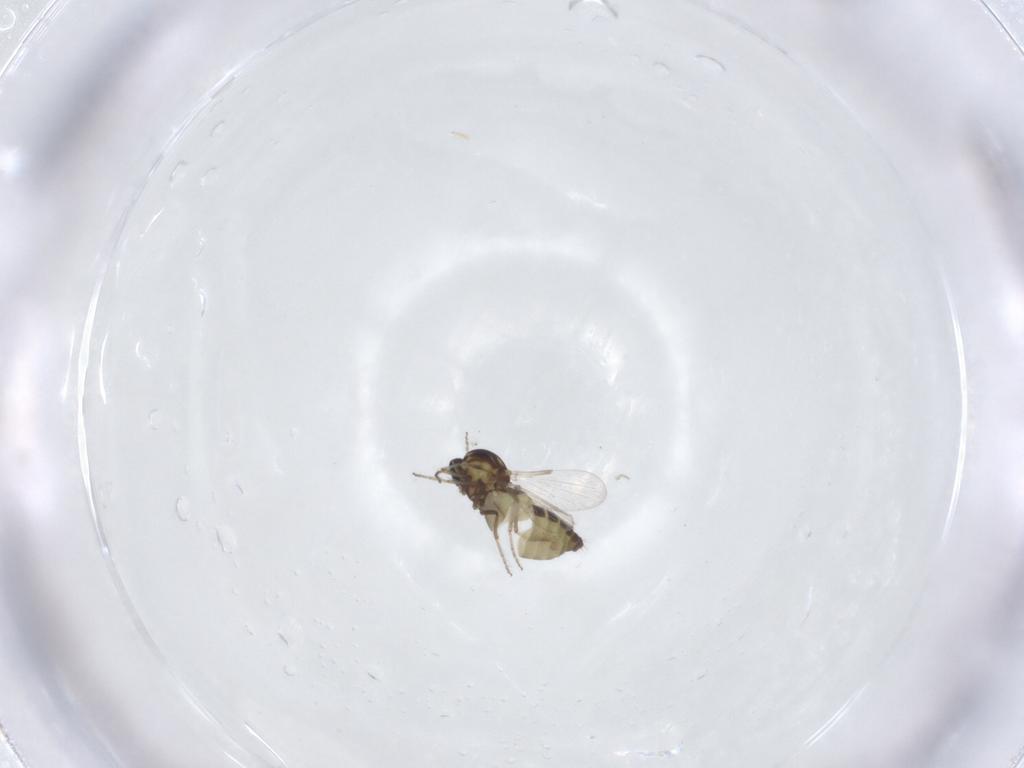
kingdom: Animalia
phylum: Arthropoda
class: Insecta
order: Diptera
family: Ceratopogonidae
